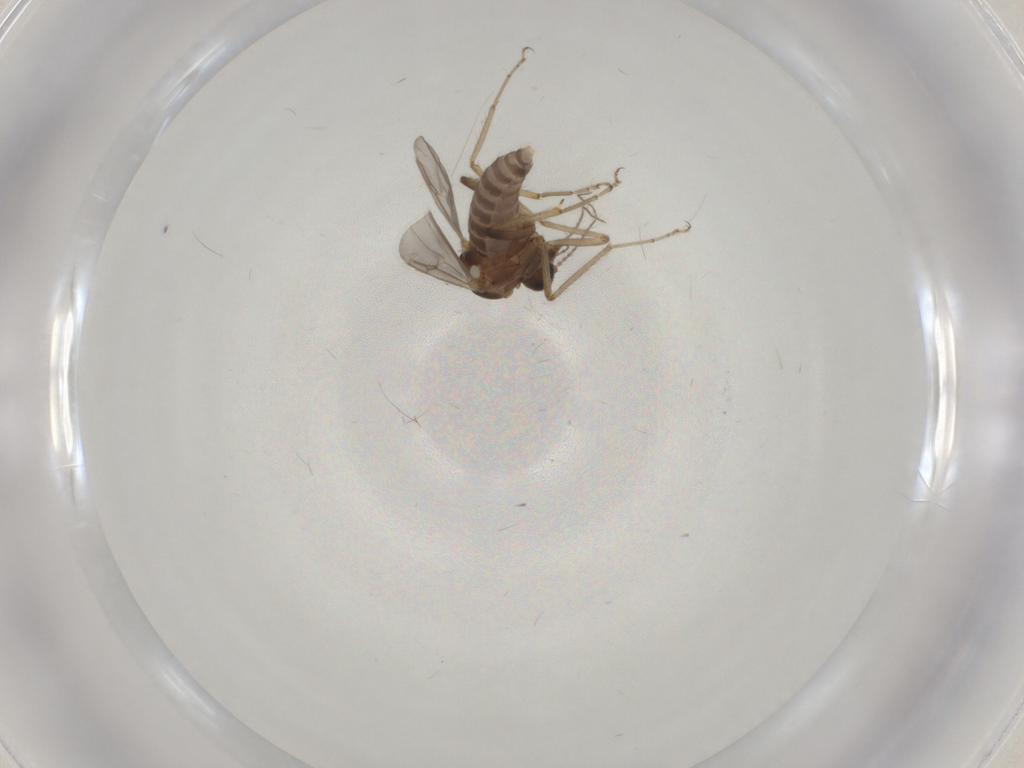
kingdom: Animalia
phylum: Arthropoda
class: Insecta
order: Diptera
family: Ceratopogonidae
